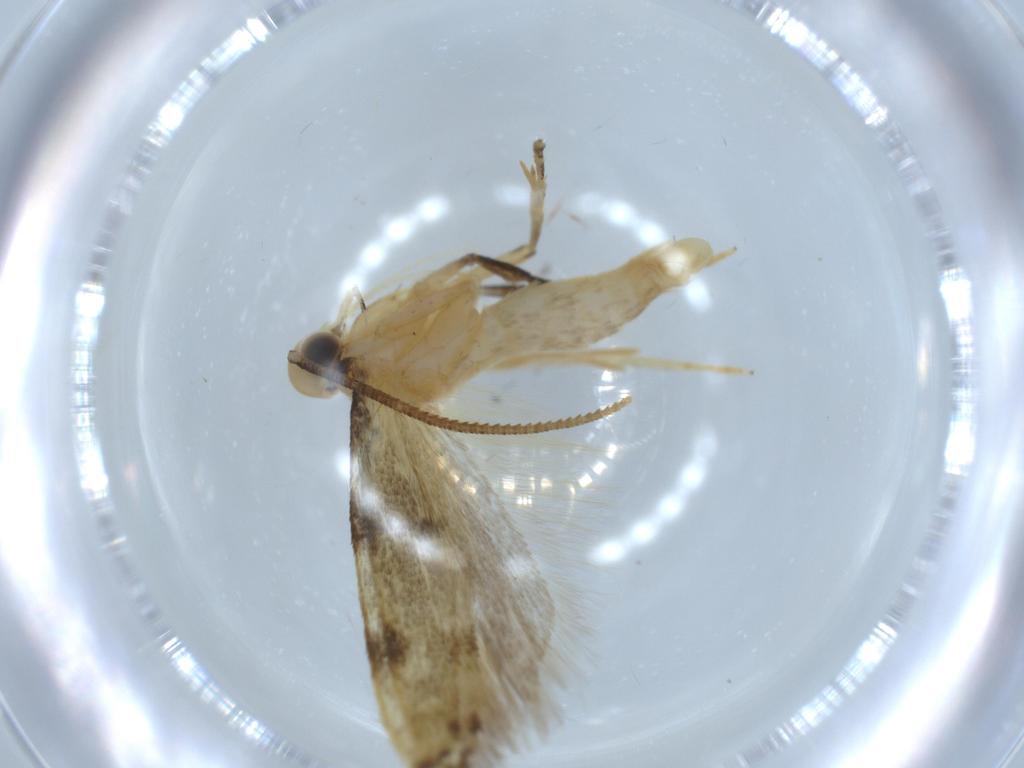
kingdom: Animalia
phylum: Arthropoda
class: Insecta
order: Lepidoptera
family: Autostichidae
